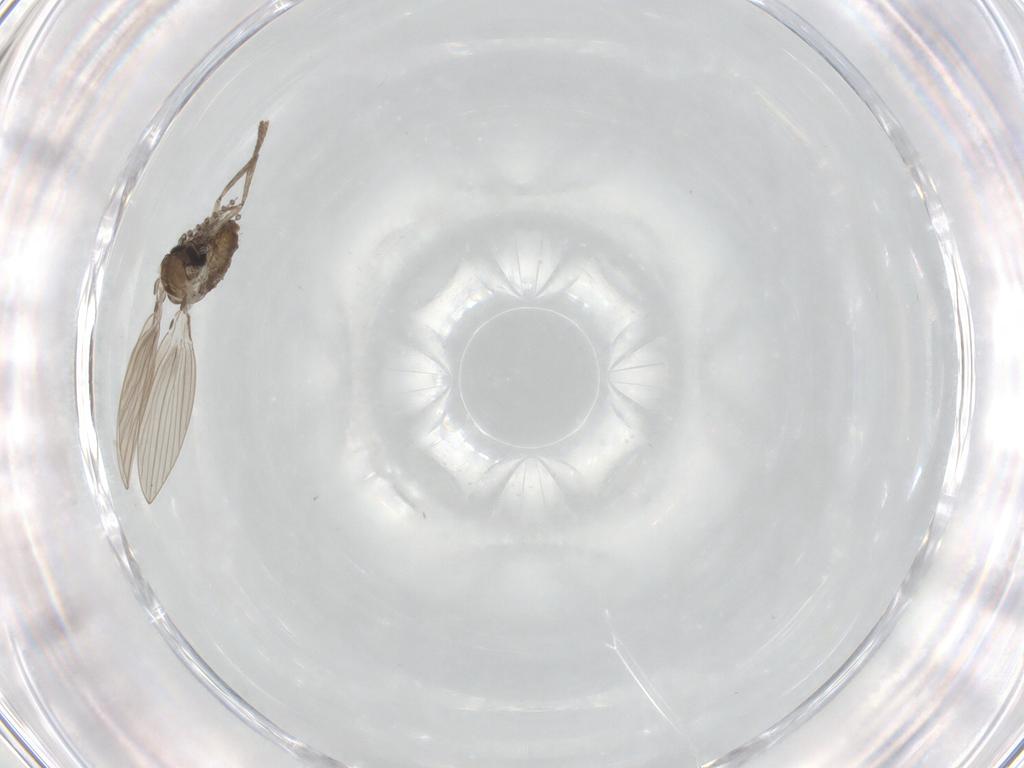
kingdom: Animalia
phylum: Arthropoda
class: Insecta
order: Diptera
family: Psychodidae
